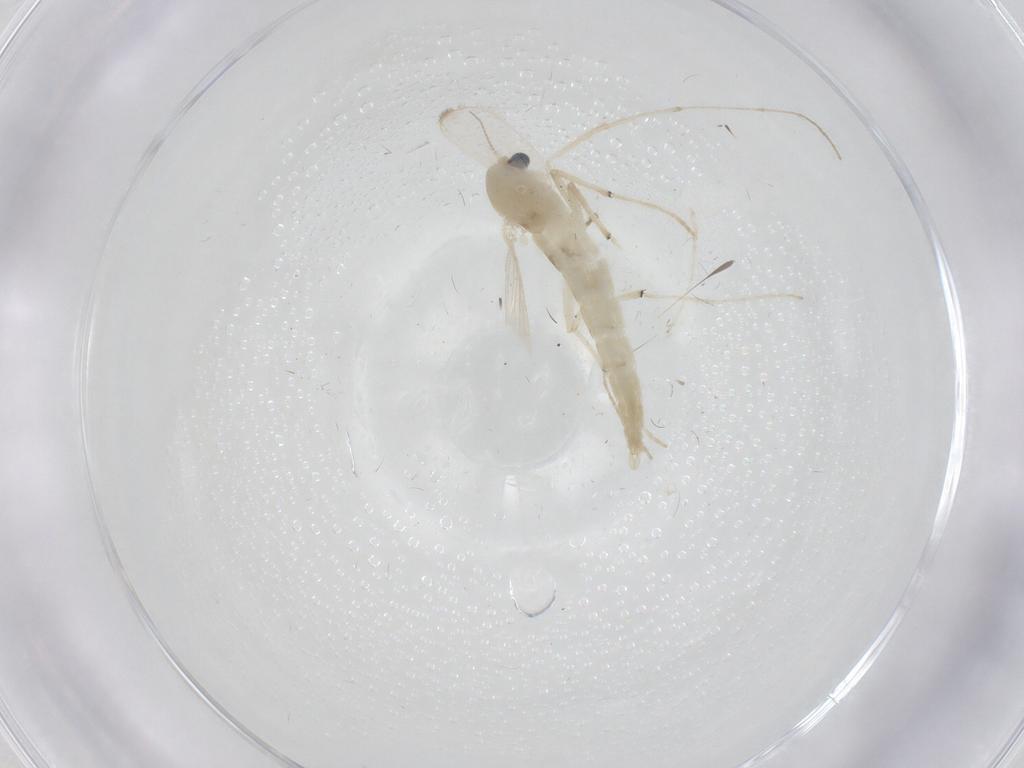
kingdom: Animalia
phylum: Arthropoda
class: Insecta
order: Diptera
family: Chironomidae
